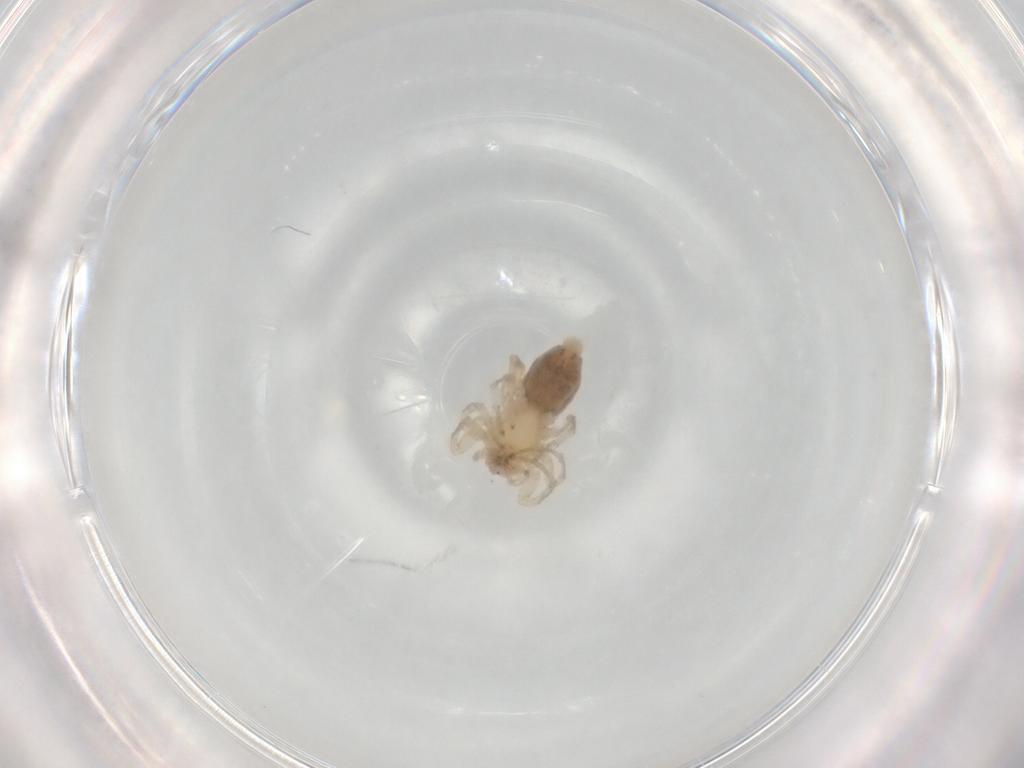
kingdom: Animalia
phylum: Arthropoda
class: Arachnida
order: Araneae
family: Anyphaenidae
